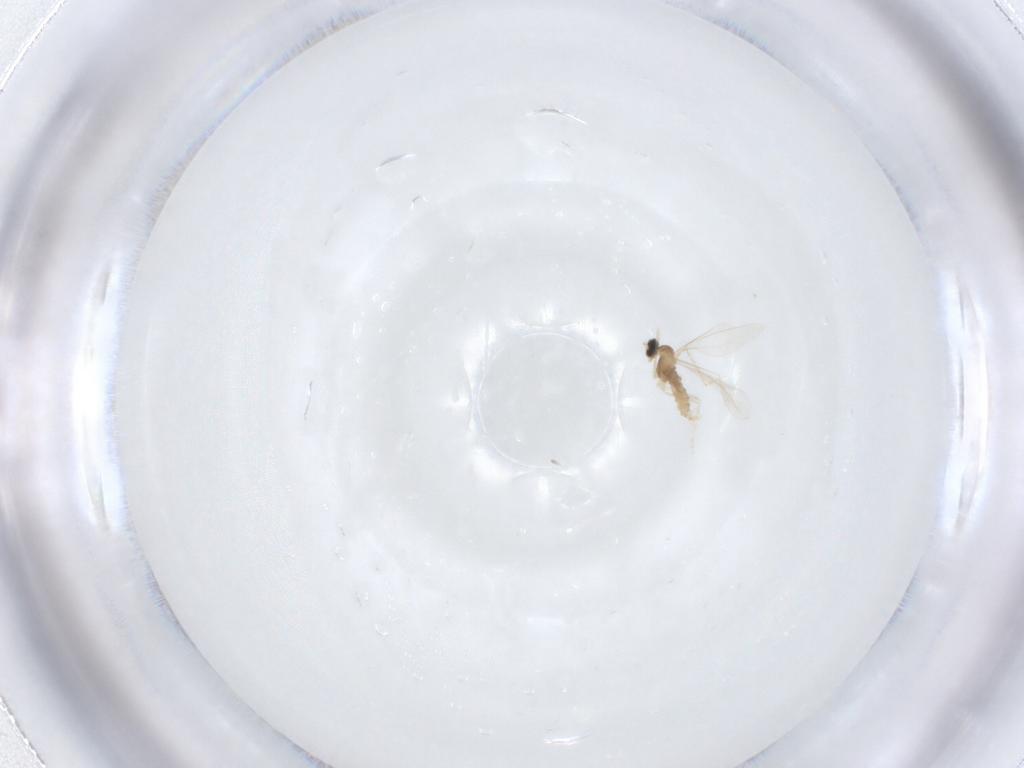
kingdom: Animalia
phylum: Arthropoda
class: Insecta
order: Diptera
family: Cecidomyiidae
